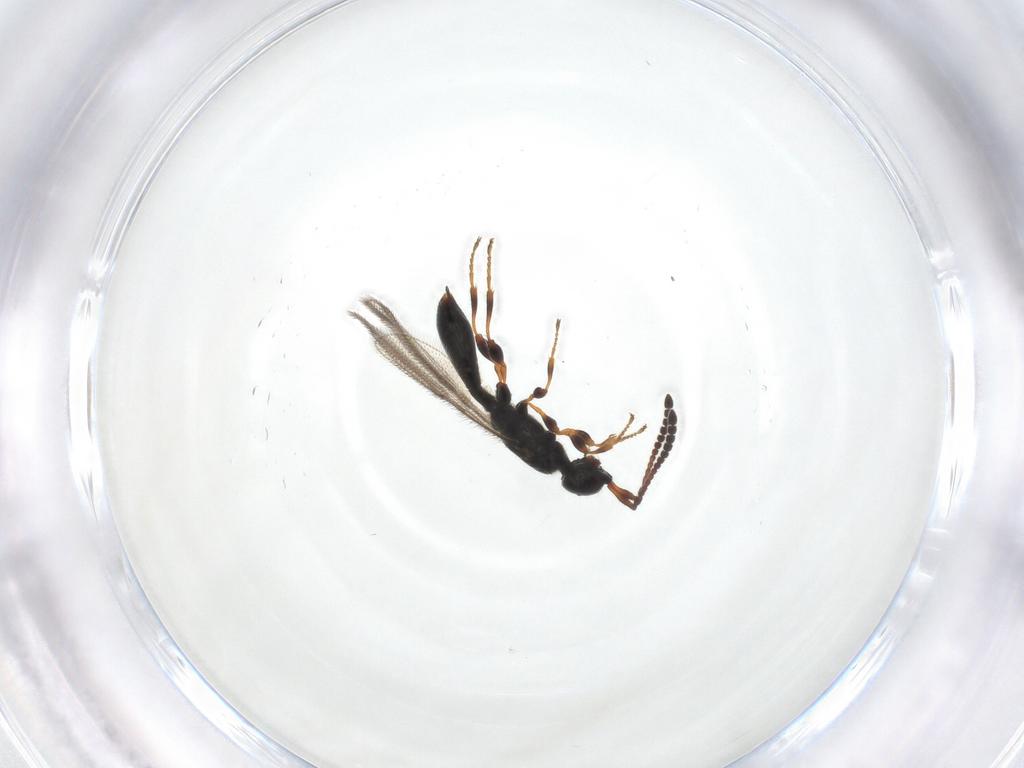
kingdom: Animalia
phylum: Arthropoda
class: Insecta
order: Hymenoptera
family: Diapriidae
